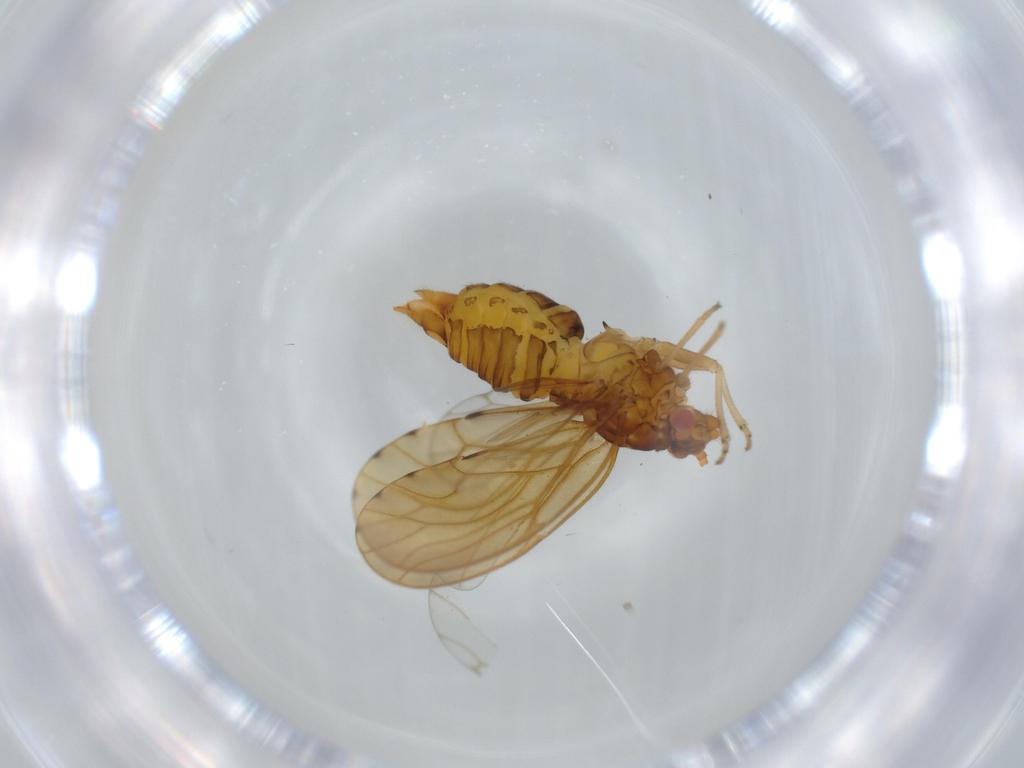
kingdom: Animalia
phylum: Arthropoda
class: Insecta
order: Hemiptera
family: Psylloidea_incertae_sedis
